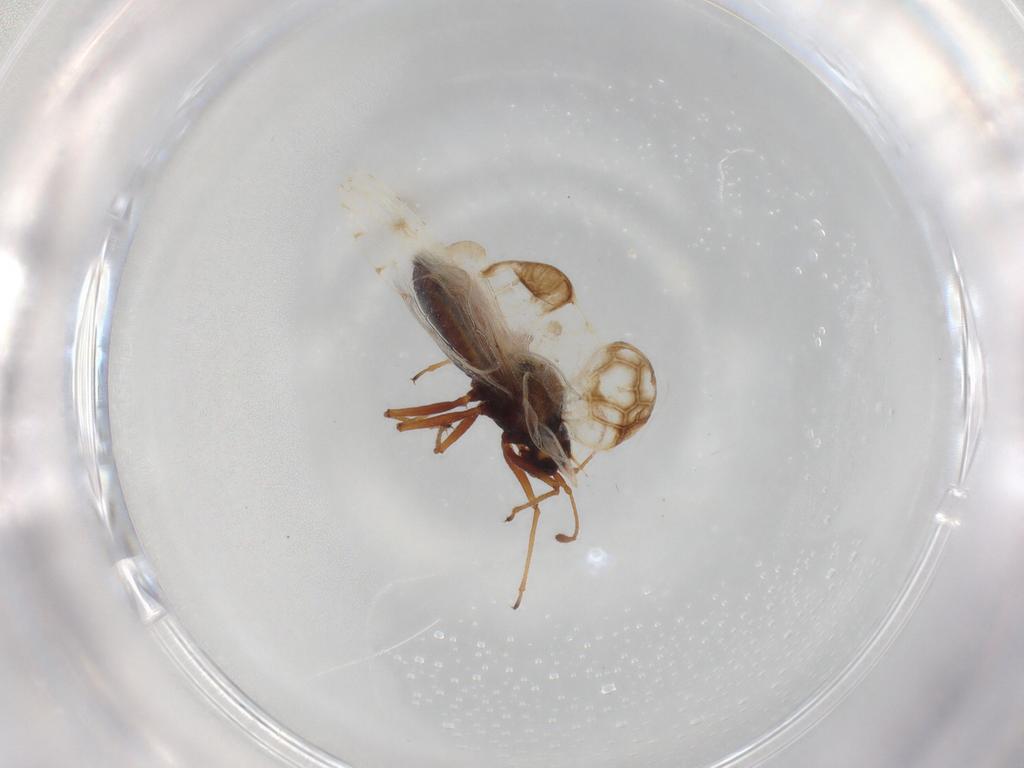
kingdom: Animalia
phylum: Arthropoda
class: Insecta
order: Hemiptera
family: Tingidae
